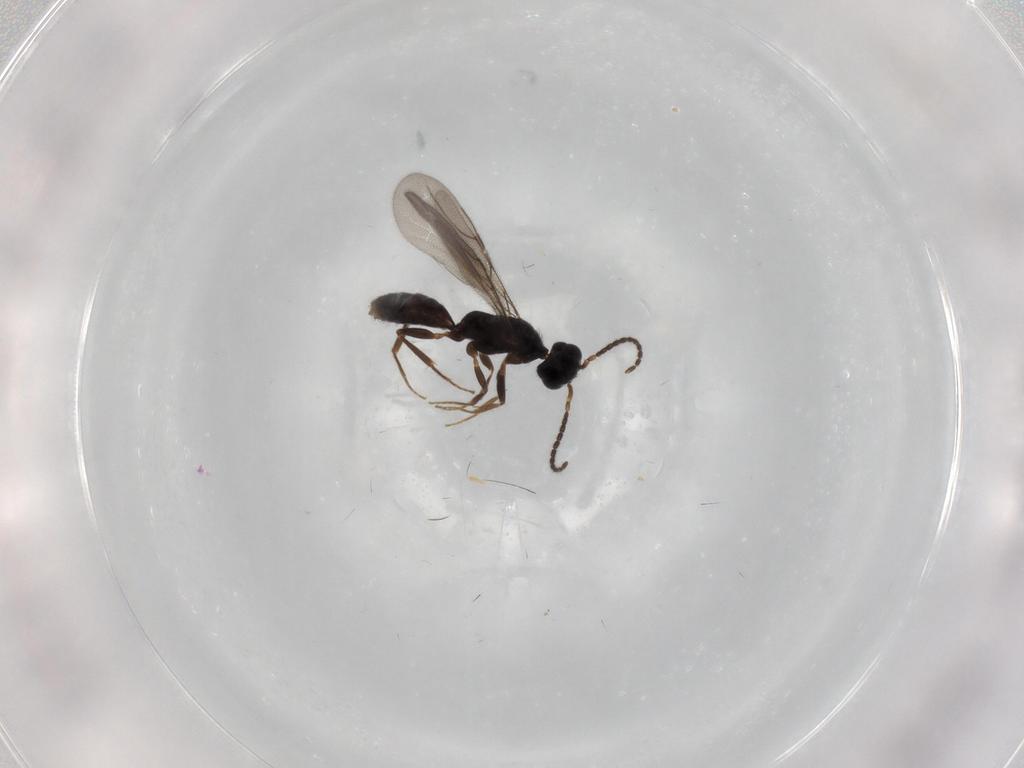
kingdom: Animalia
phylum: Arthropoda
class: Insecta
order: Hymenoptera
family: Bethylidae
